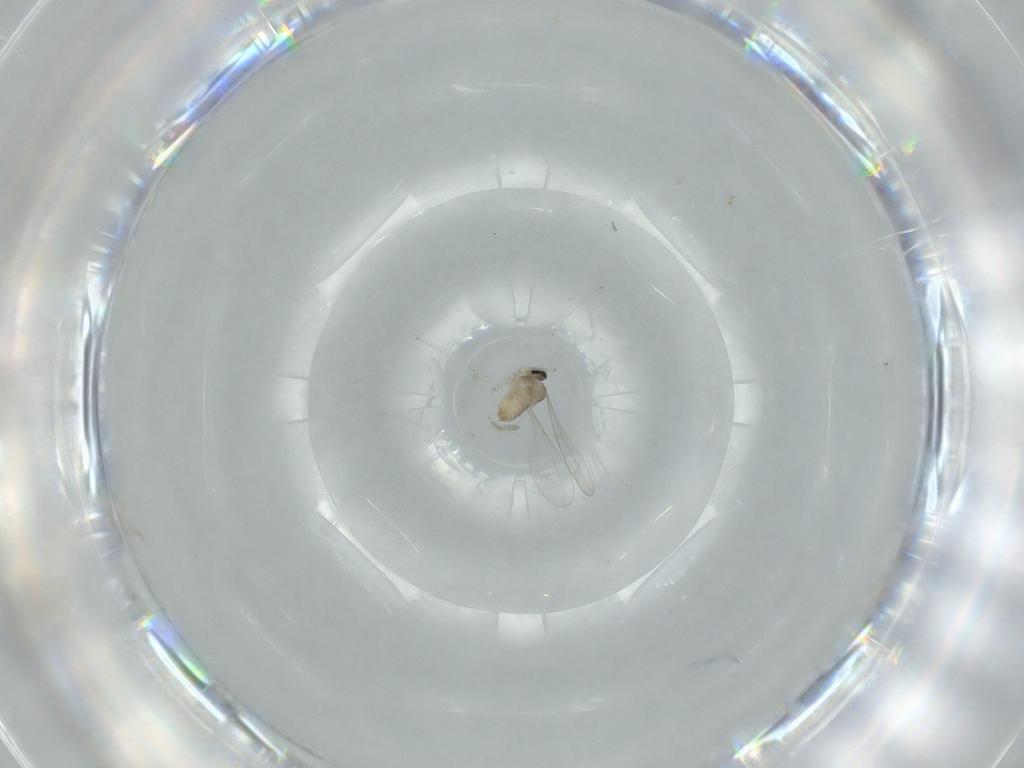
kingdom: Animalia
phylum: Arthropoda
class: Insecta
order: Diptera
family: Cecidomyiidae
